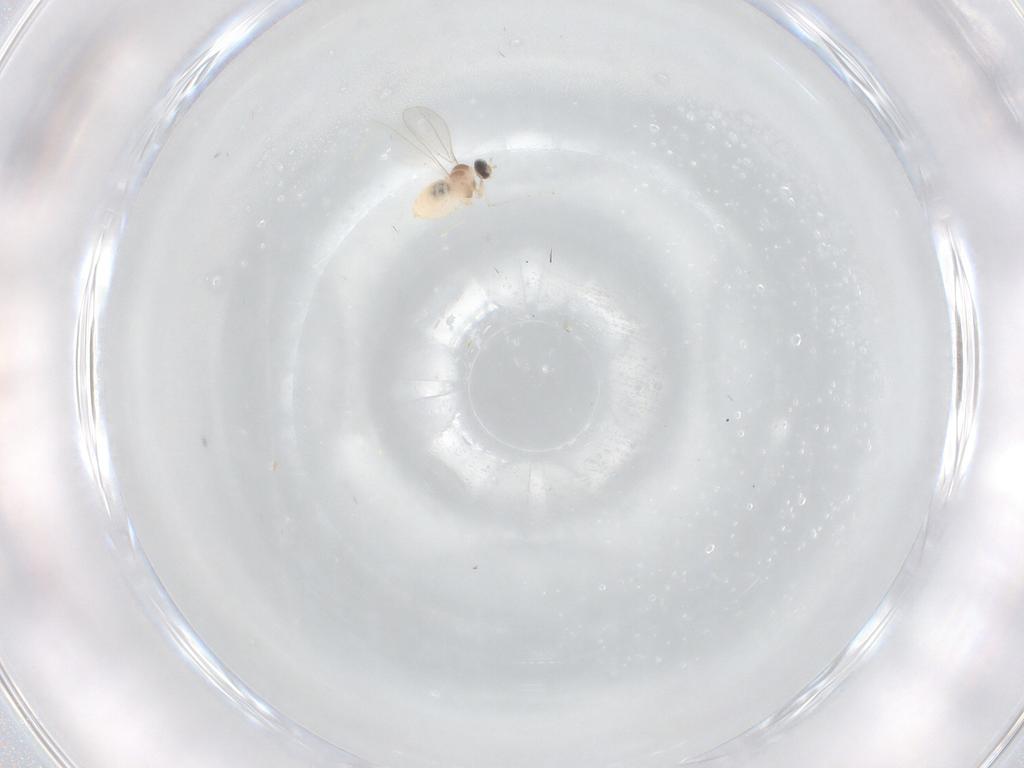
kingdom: Animalia
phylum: Arthropoda
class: Insecta
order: Diptera
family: Cecidomyiidae
